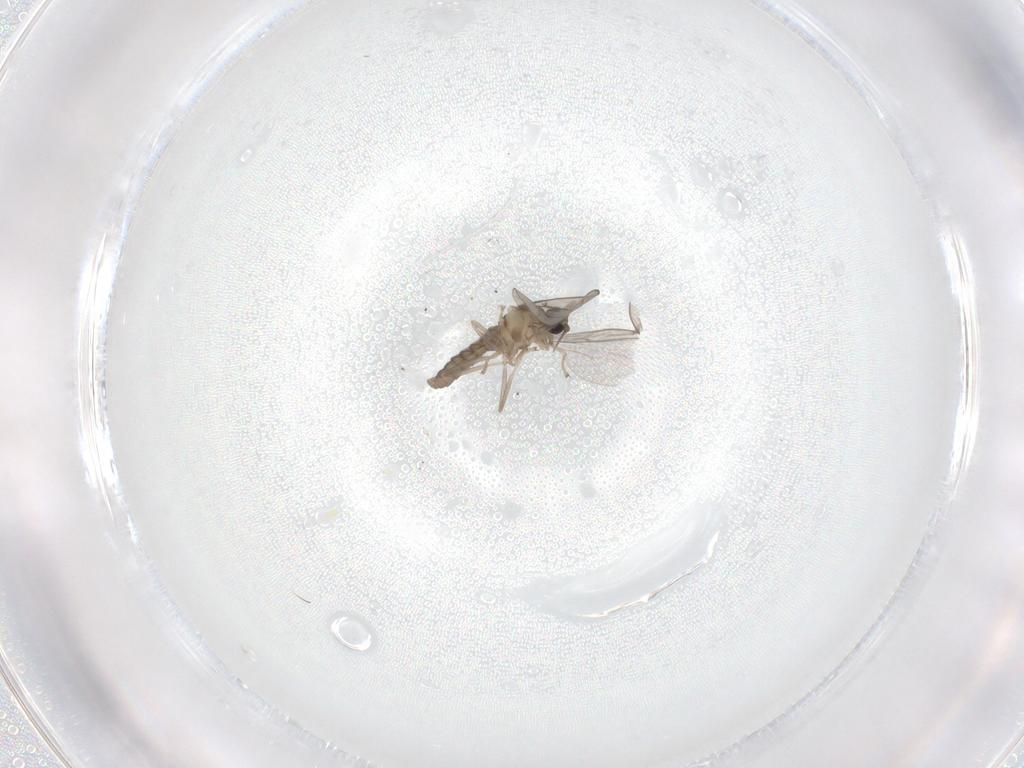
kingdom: Animalia
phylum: Arthropoda
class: Insecta
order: Diptera
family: Cecidomyiidae
